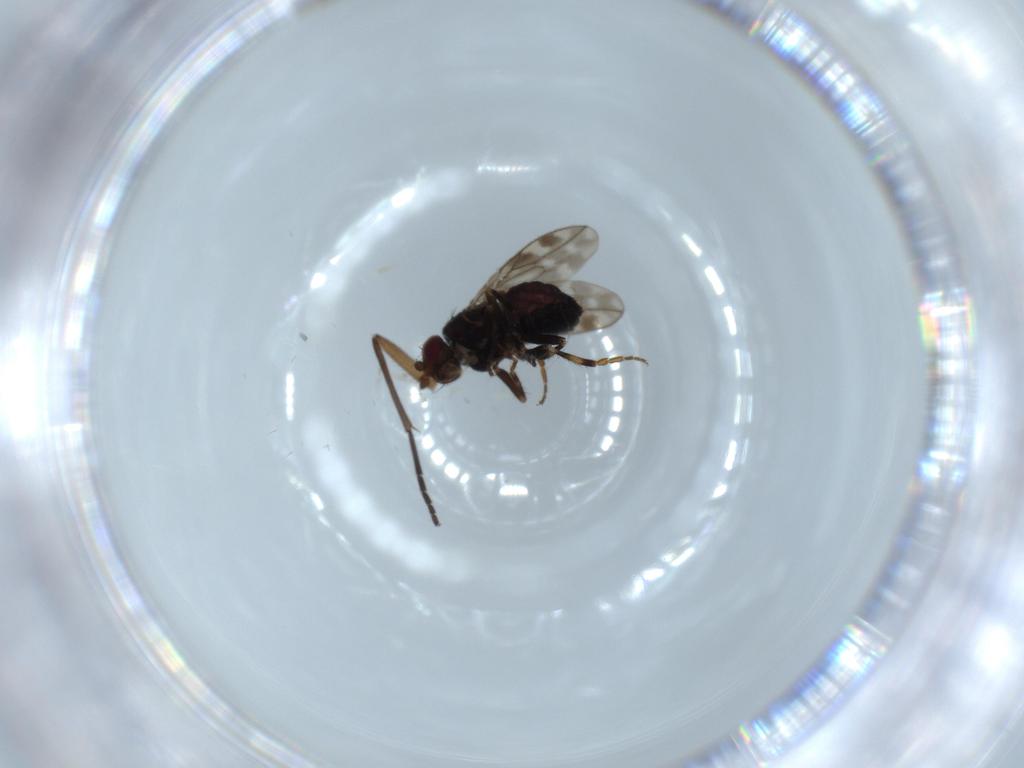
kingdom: Animalia
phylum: Arthropoda
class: Insecta
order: Diptera
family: Sphaeroceridae
